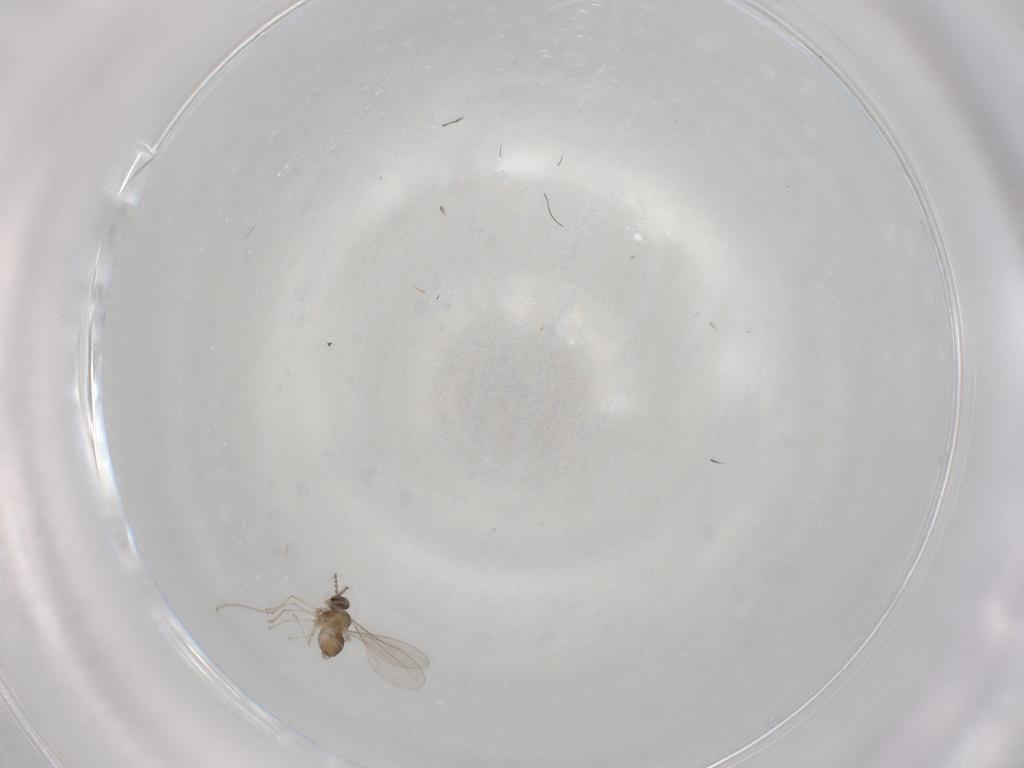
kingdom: Animalia
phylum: Arthropoda
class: Insecta
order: Diptera
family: Cecidomyiidae
